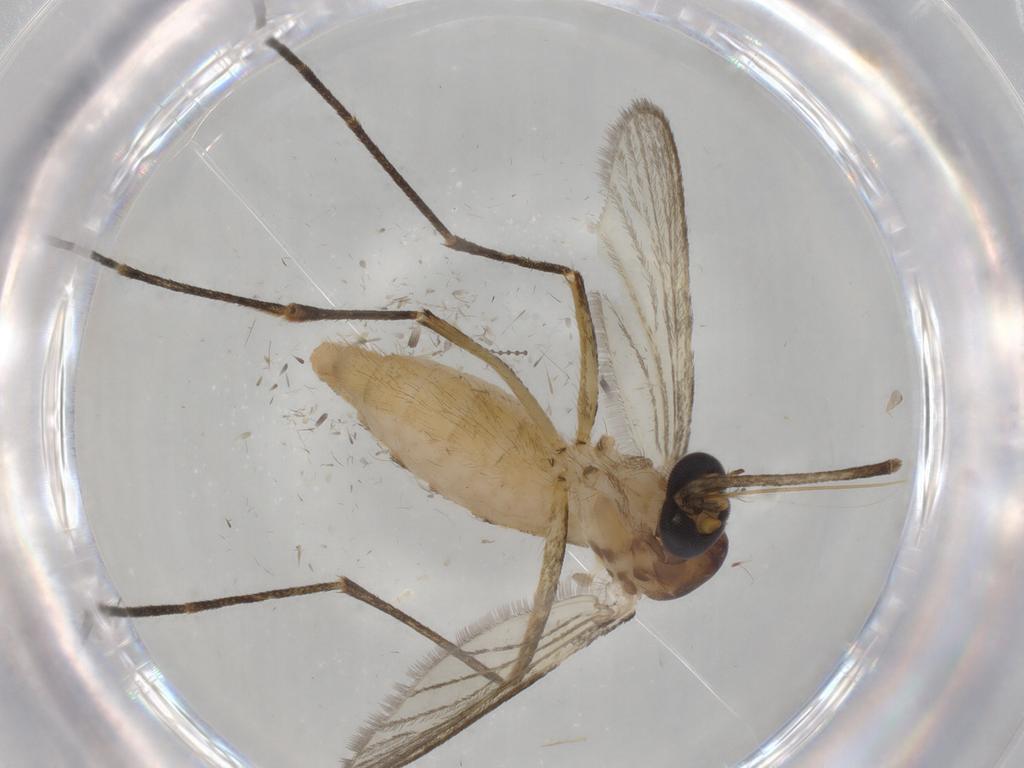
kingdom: Animalia
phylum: Arthropoda
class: Insecta
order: Diptera
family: Culicidae
